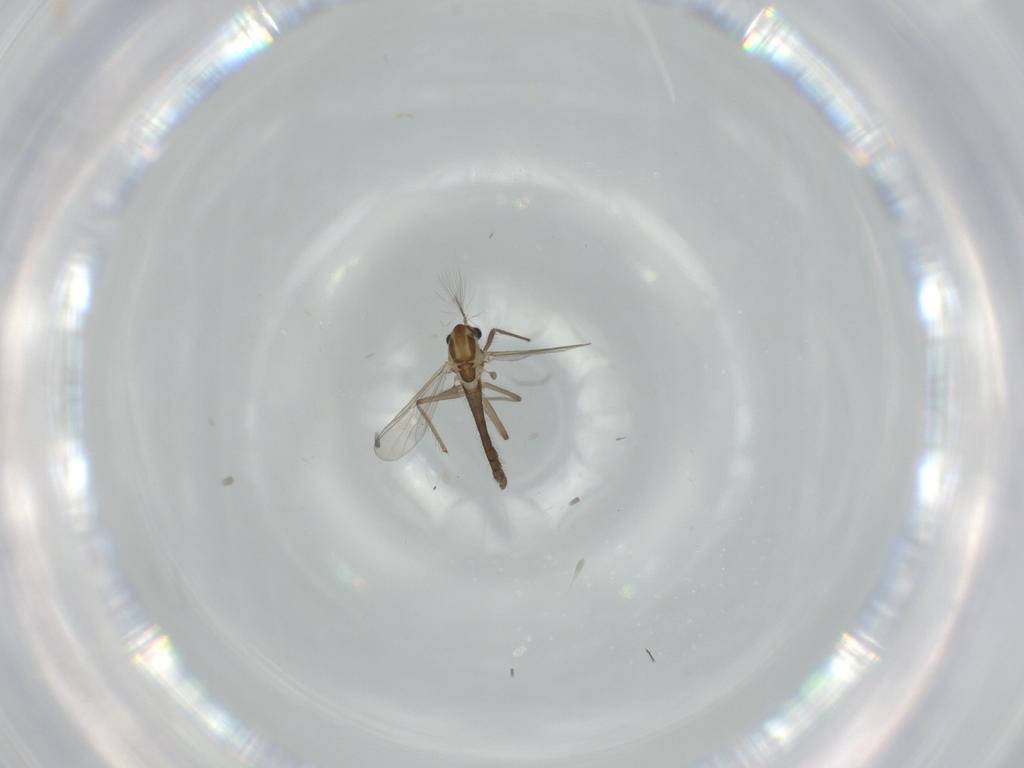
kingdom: Animalia
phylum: Arthropoda
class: Insecta
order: Diptera
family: Chironomidae
